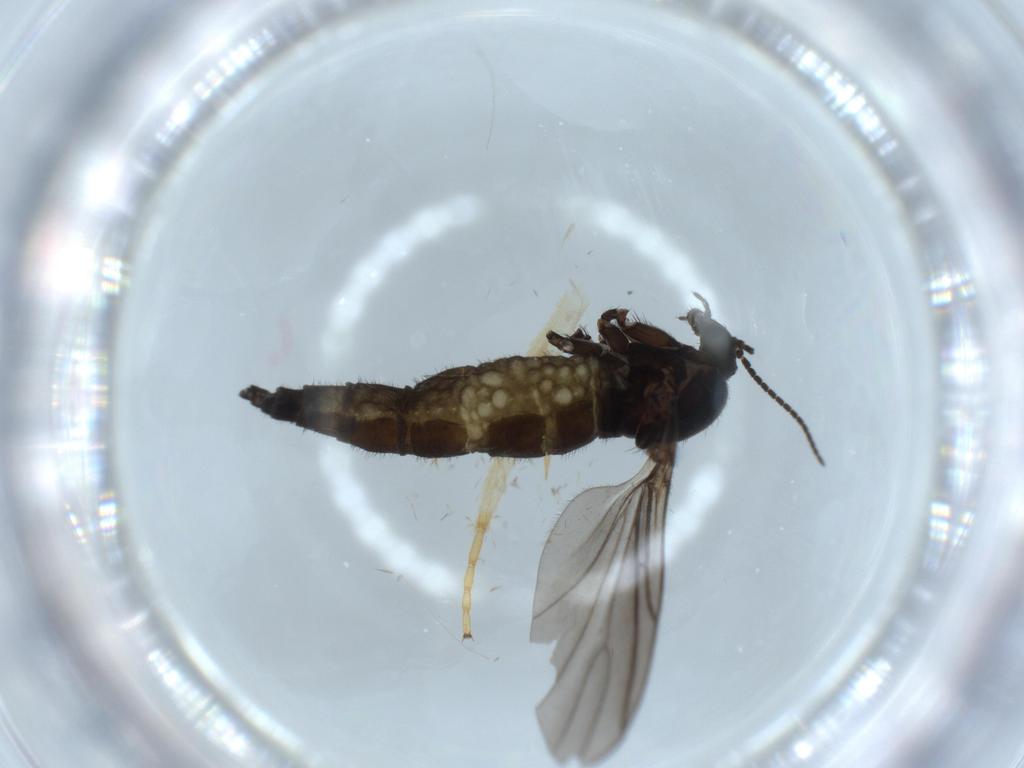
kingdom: Animalia
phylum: Arthropoda
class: Insecta
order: Diptera
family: Sciaridae
